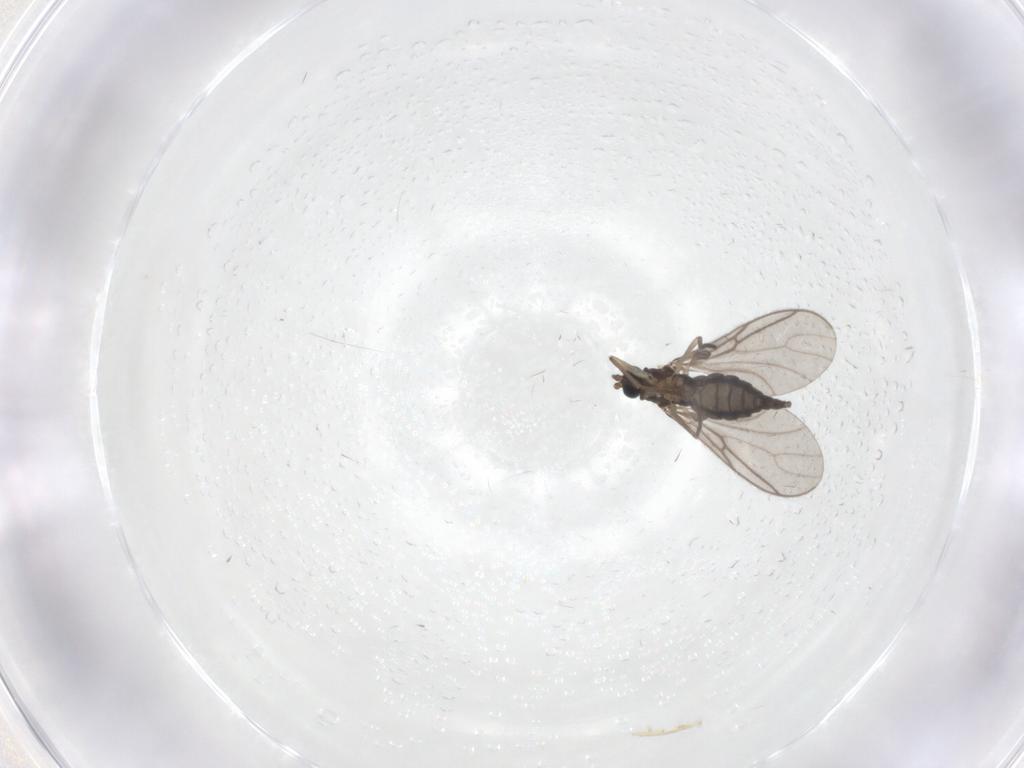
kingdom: Animalia
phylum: Arthropoda
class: Insecta
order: Diptera
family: Sciaridae
